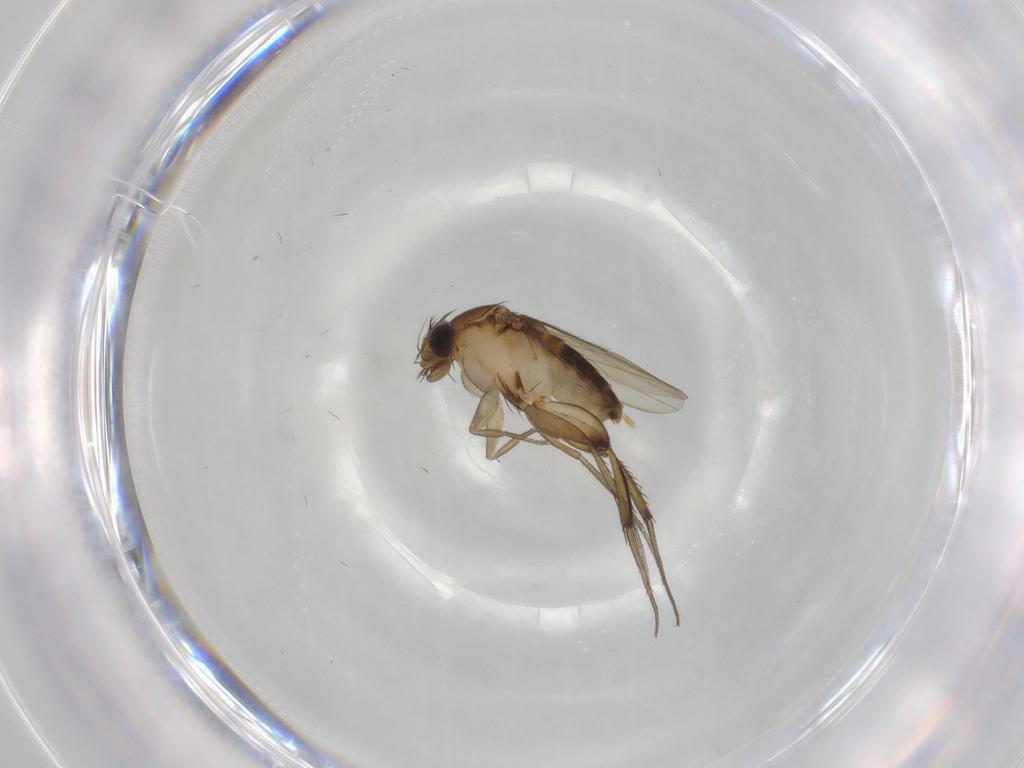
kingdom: Animalia
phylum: Arthropoda
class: Insecta
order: Diptera
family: Phoridae
